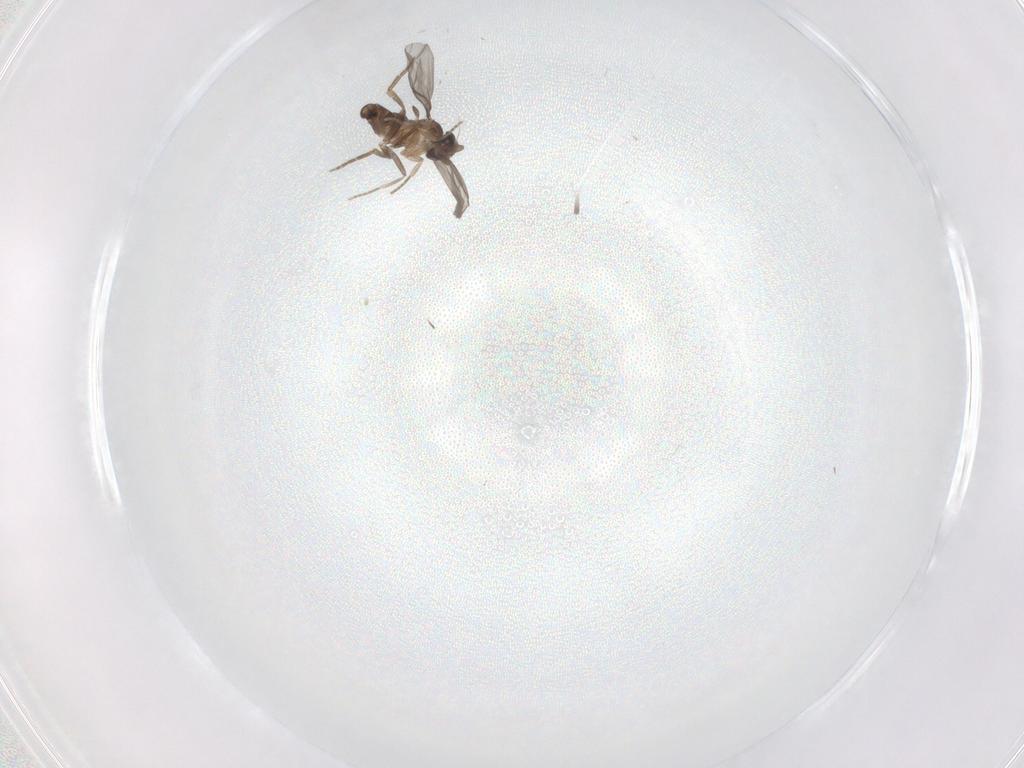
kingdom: Animalia
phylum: Arthropoda
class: Insecta
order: Diptera
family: Chironomidae
